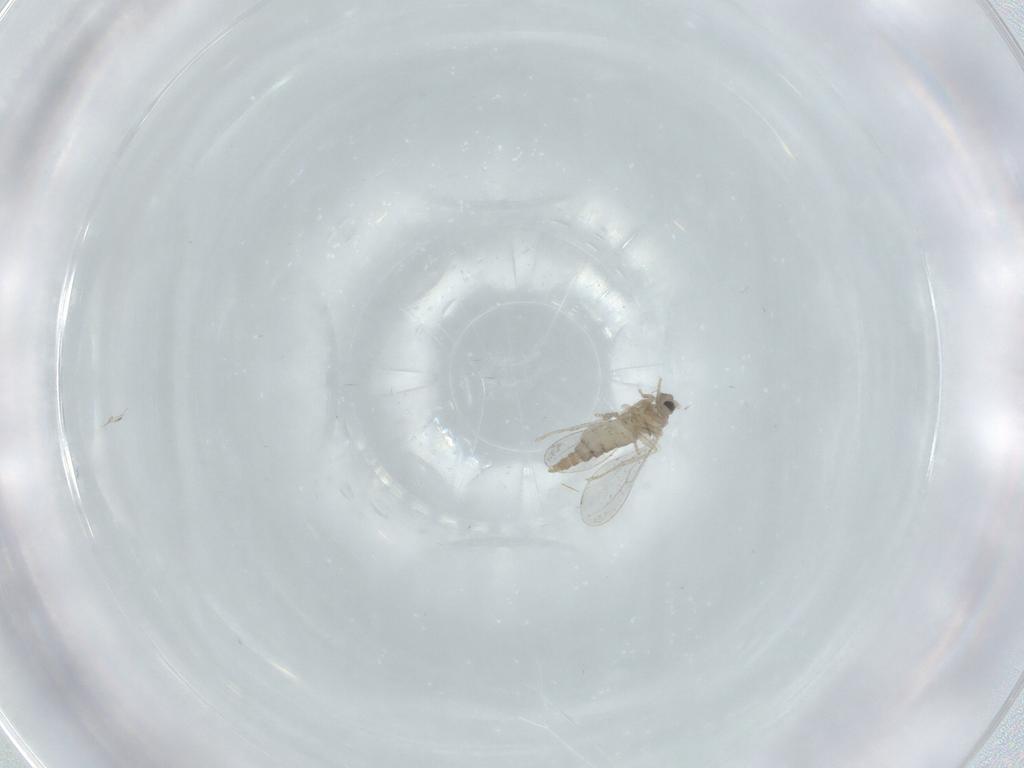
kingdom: Animalia
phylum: Arthropoda
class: Insecta
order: Diptera
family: Cecidomyiidae
